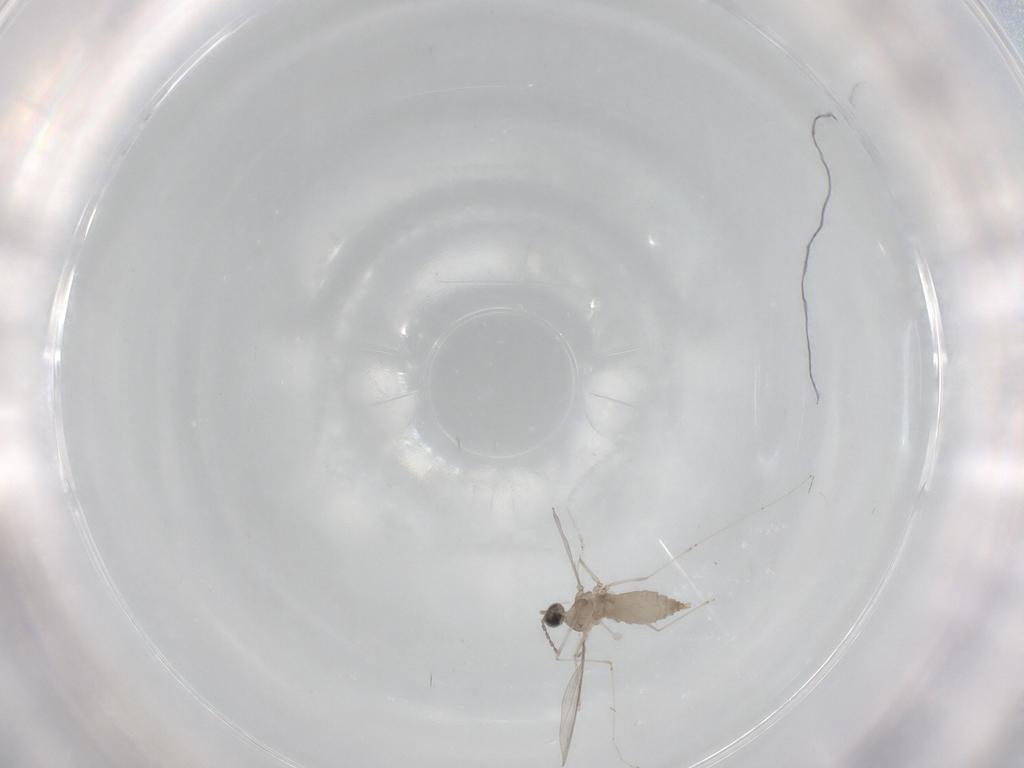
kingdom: Animalia
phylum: Arthropoda
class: Insecta
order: Diptera
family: Cecidomyiidae
